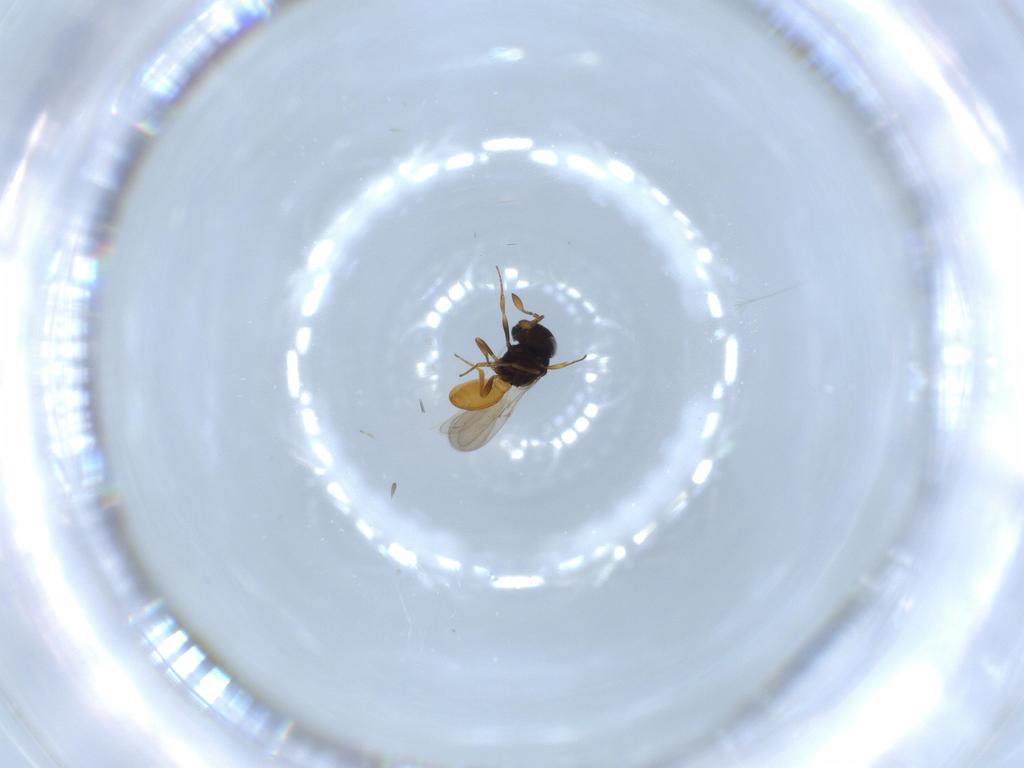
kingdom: Animalia
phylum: Arthropoda
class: Insecta
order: Hymenoptera
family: Scelionidae
